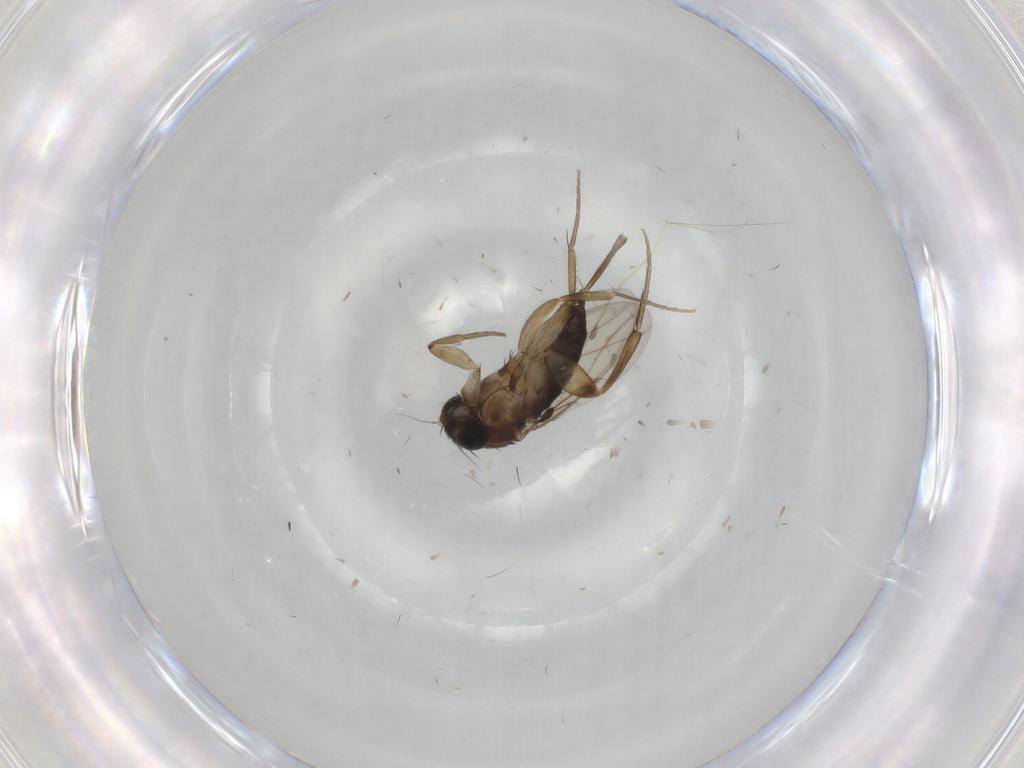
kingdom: Animalia
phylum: Arthropoda
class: Insecta
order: Diptera
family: Phoridae
